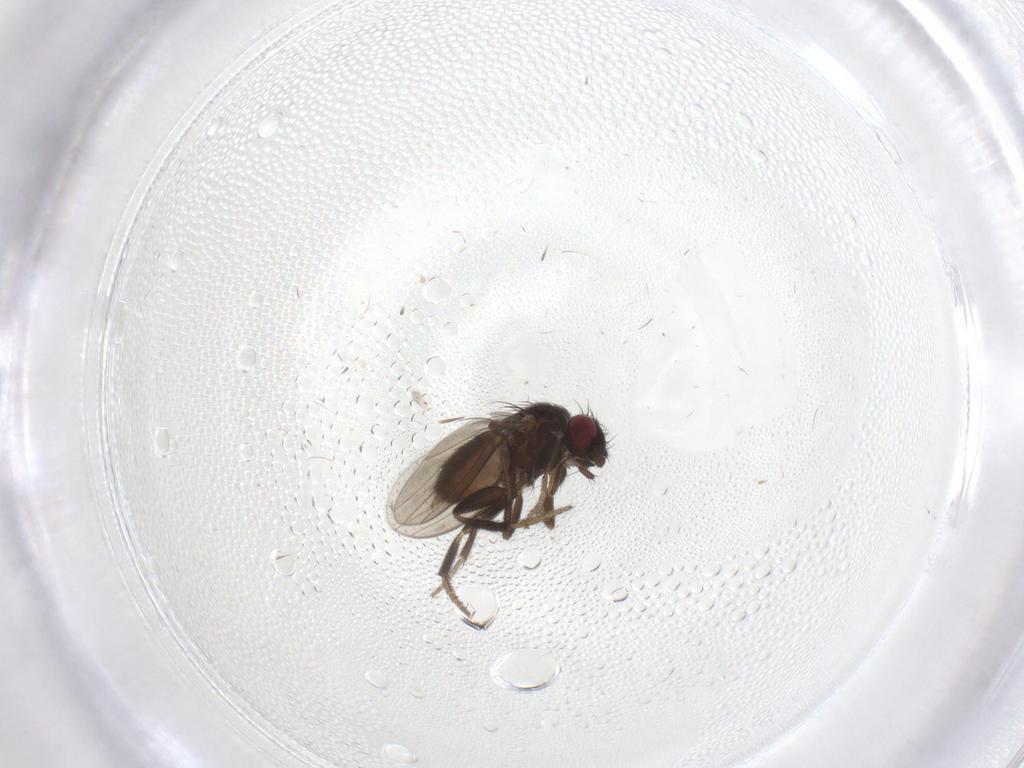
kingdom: Animalia
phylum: Arthropoda
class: Insecta
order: Diptera
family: Milichiidae
